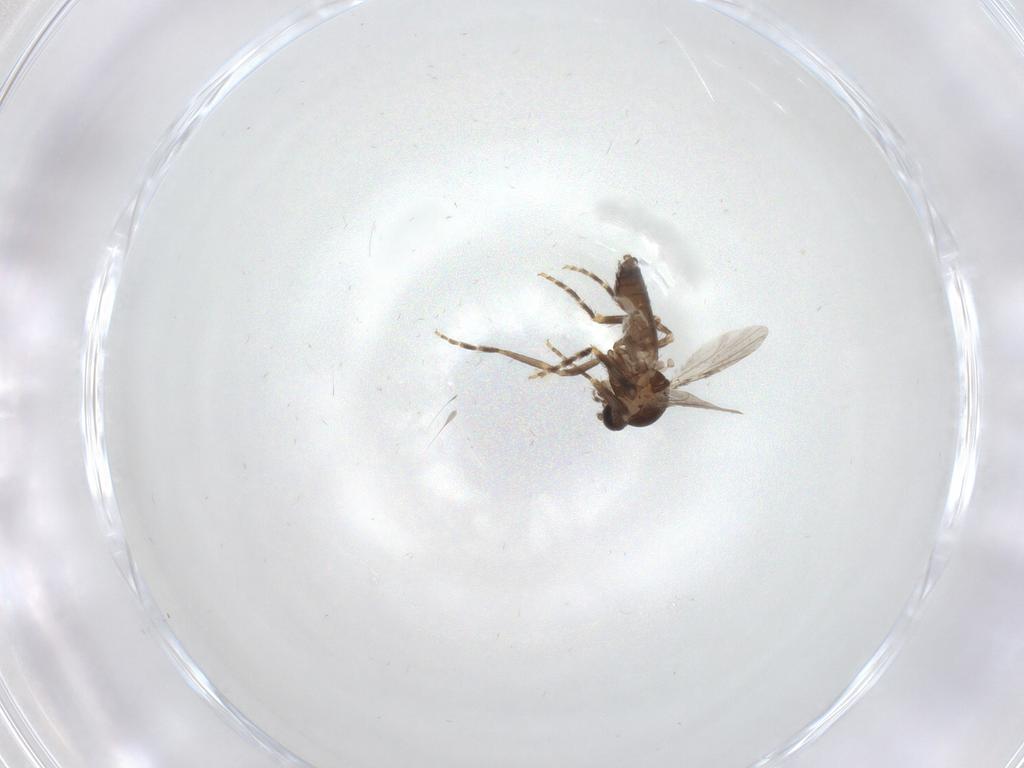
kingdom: Animalia
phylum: Arthropoda
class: Insecta
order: Diptera
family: Ceratopogonidae
